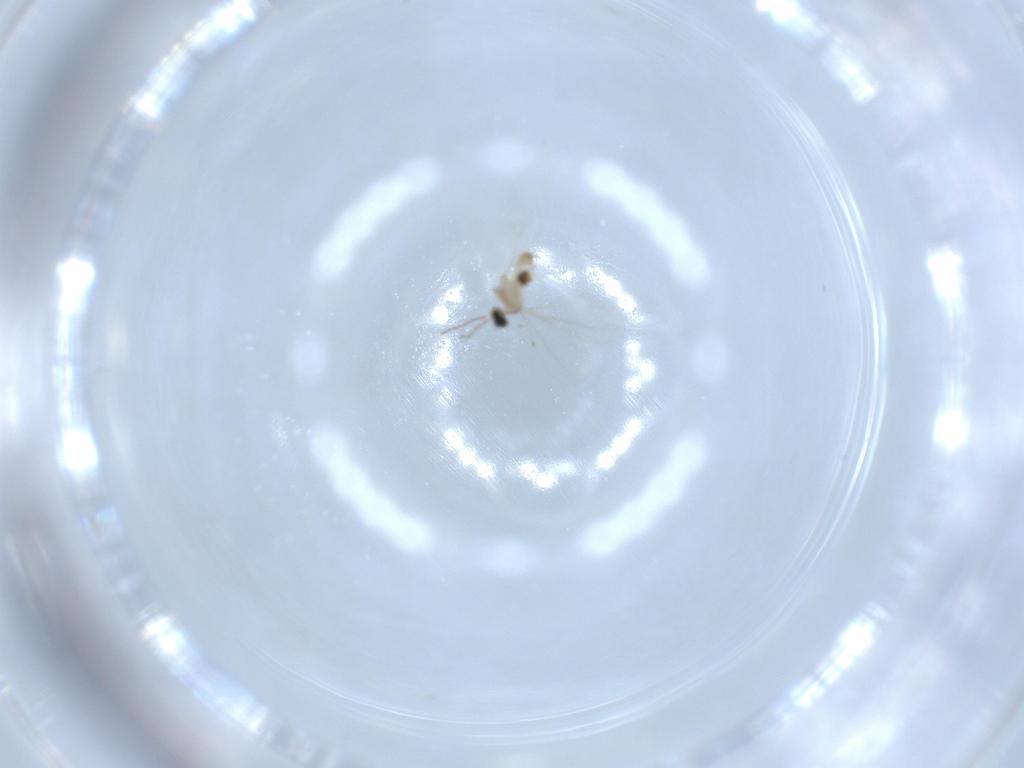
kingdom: Animalia
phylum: Arthropoda
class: Insecta
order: Diptera
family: Cecidomyiidae
